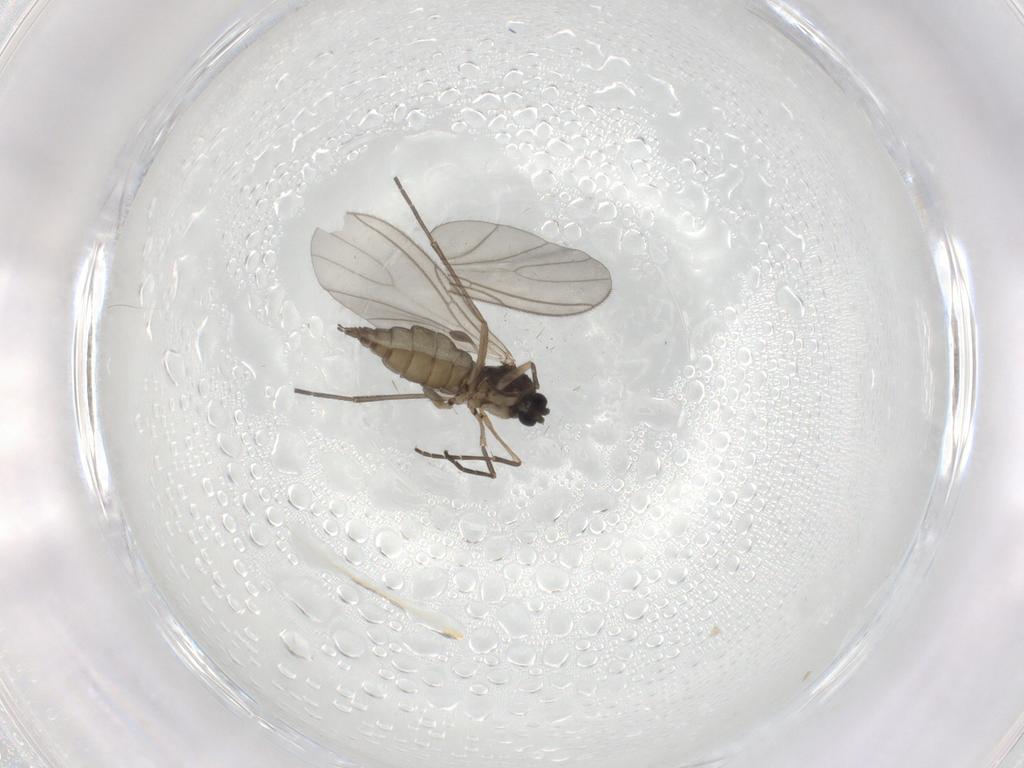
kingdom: Animalia
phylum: Arthropoda
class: Insecta
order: Diptera
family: Sciaridae
